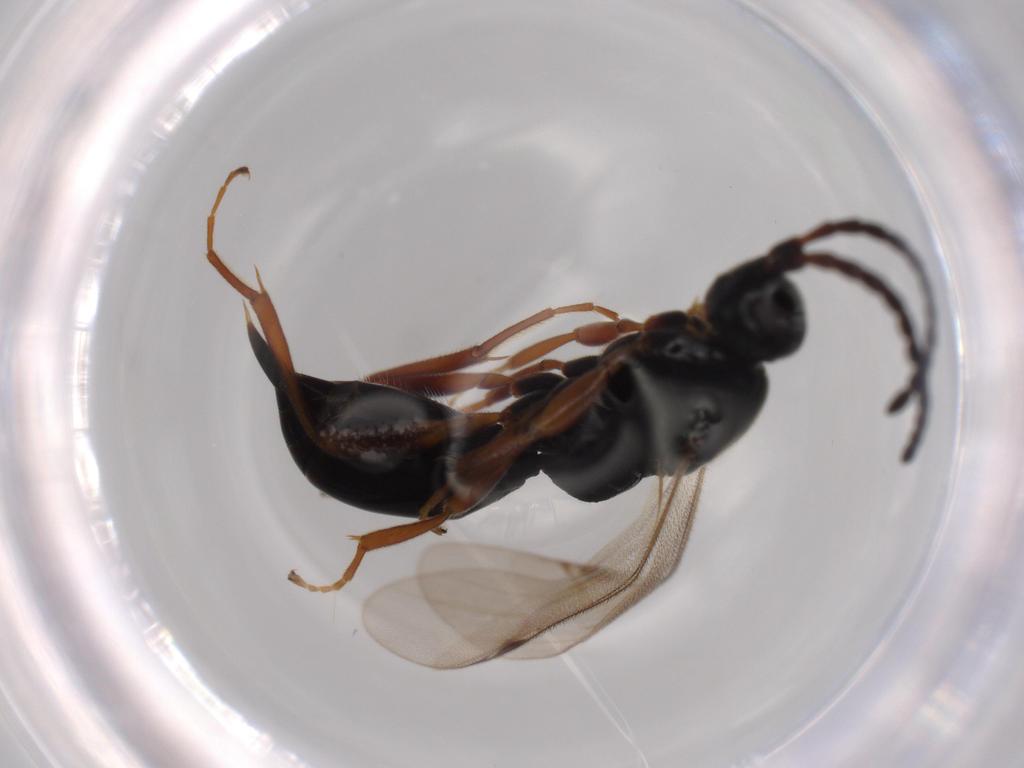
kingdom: Animalia
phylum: Arthropoda
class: Insecta
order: Hymenoptera
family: Proctotrupidae
